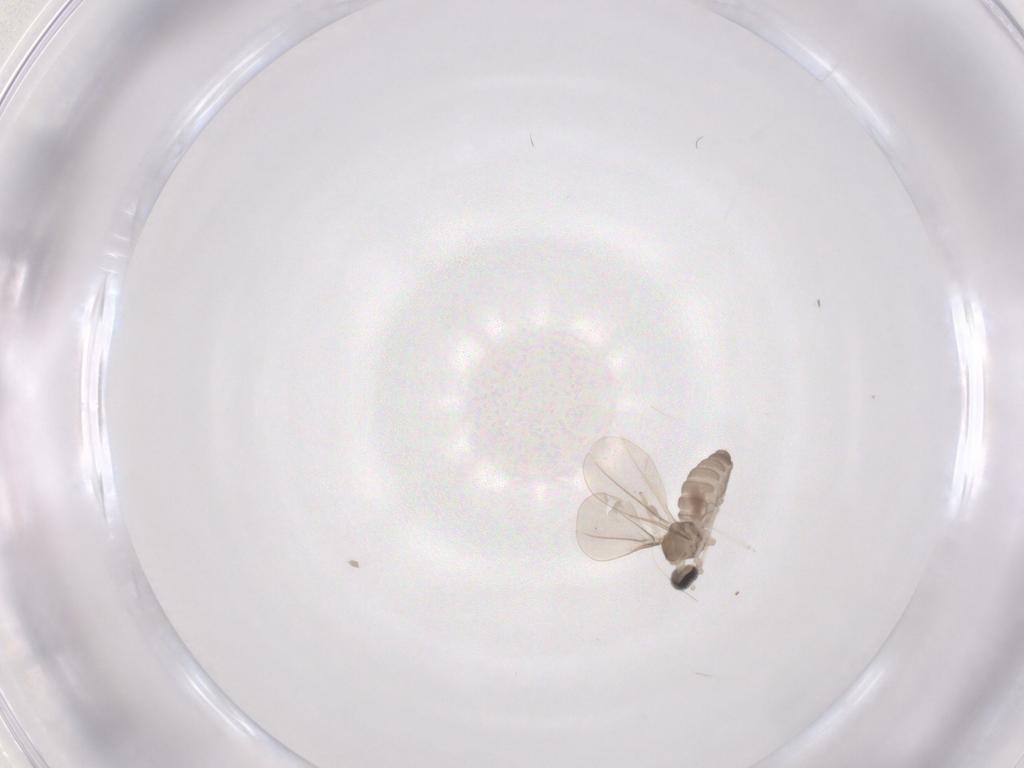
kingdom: Animalia
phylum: Arthropoda
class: Insecta
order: Diptera
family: Cecidomyiidae
